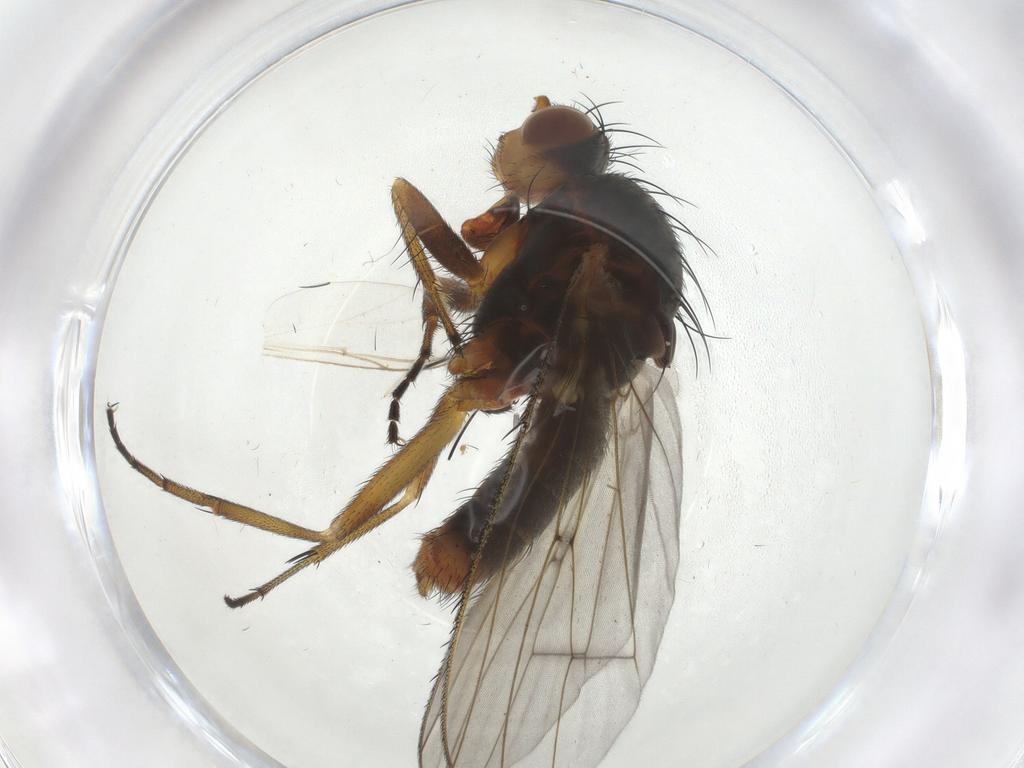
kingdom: Animalia
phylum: Arthropoda
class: Insecta
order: Diptera
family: Heleomyzidae
